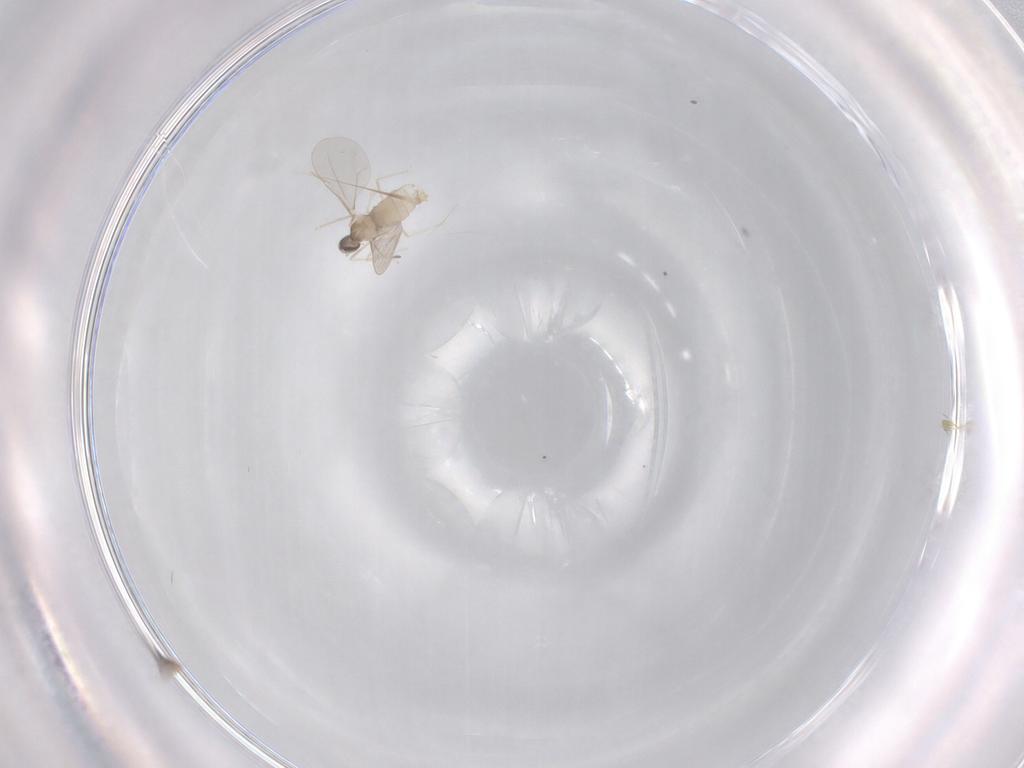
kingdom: Animalia
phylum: Arthropoda
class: Insecta
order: Diptera
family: Cecidomyiidae
